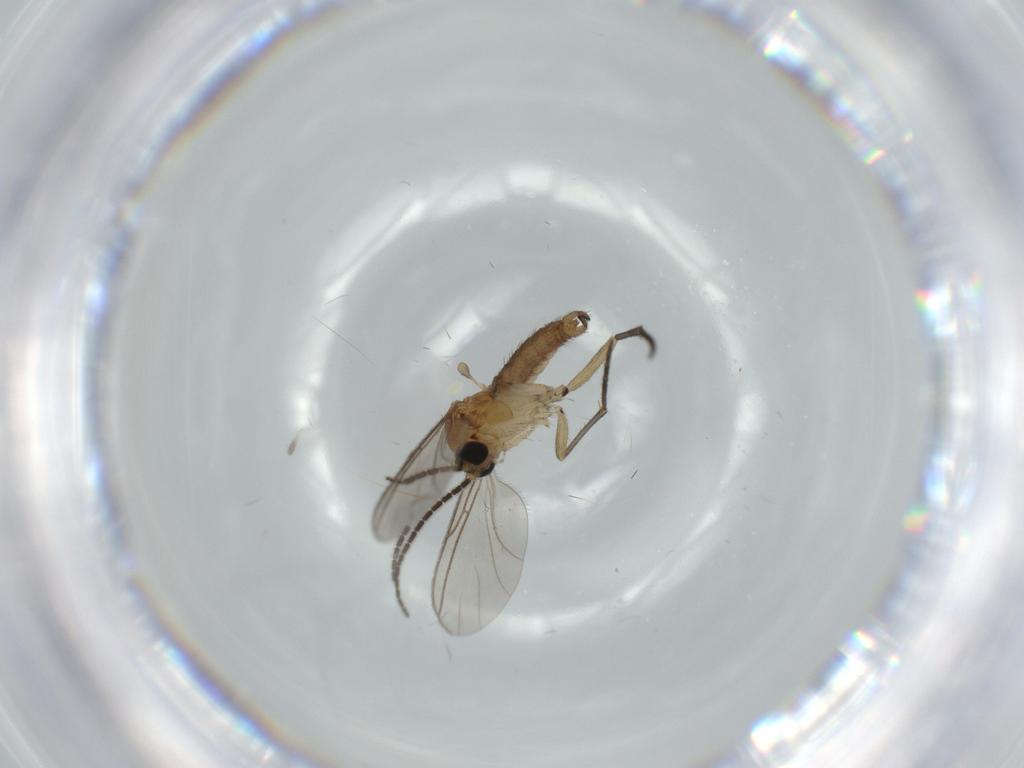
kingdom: Animalia
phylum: Arthropoda
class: Insecta
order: Diptera
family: Sciaridae
